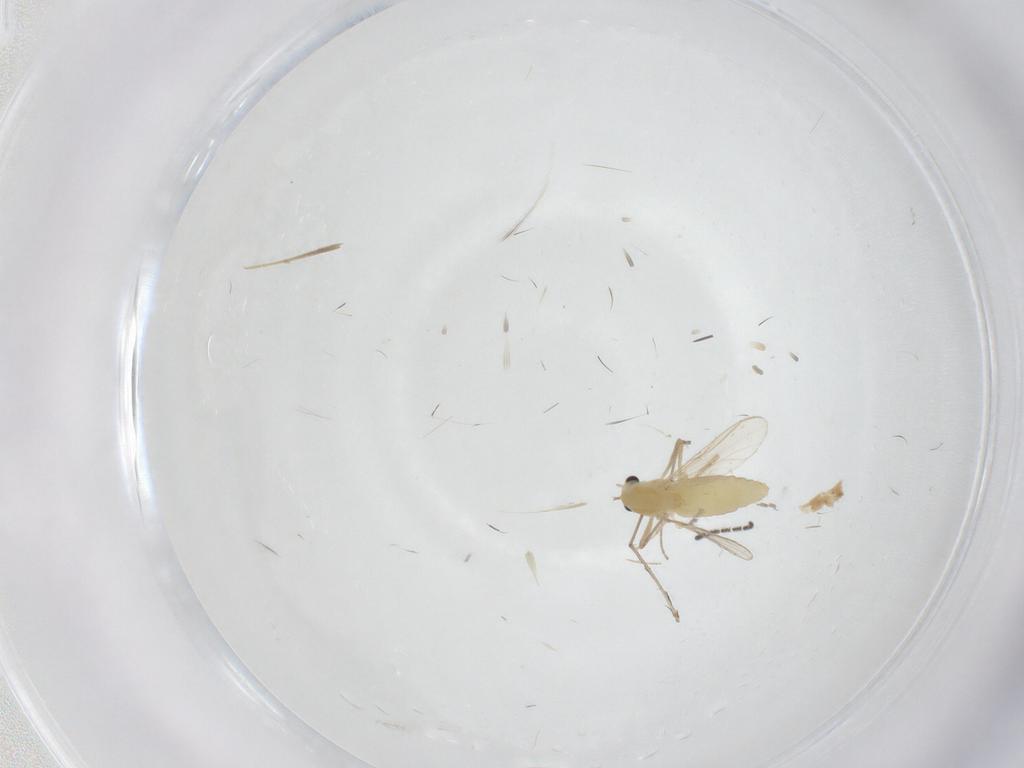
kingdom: Animalia
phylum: Arthropoda
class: Insecta
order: Diptera
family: Chironomidae
